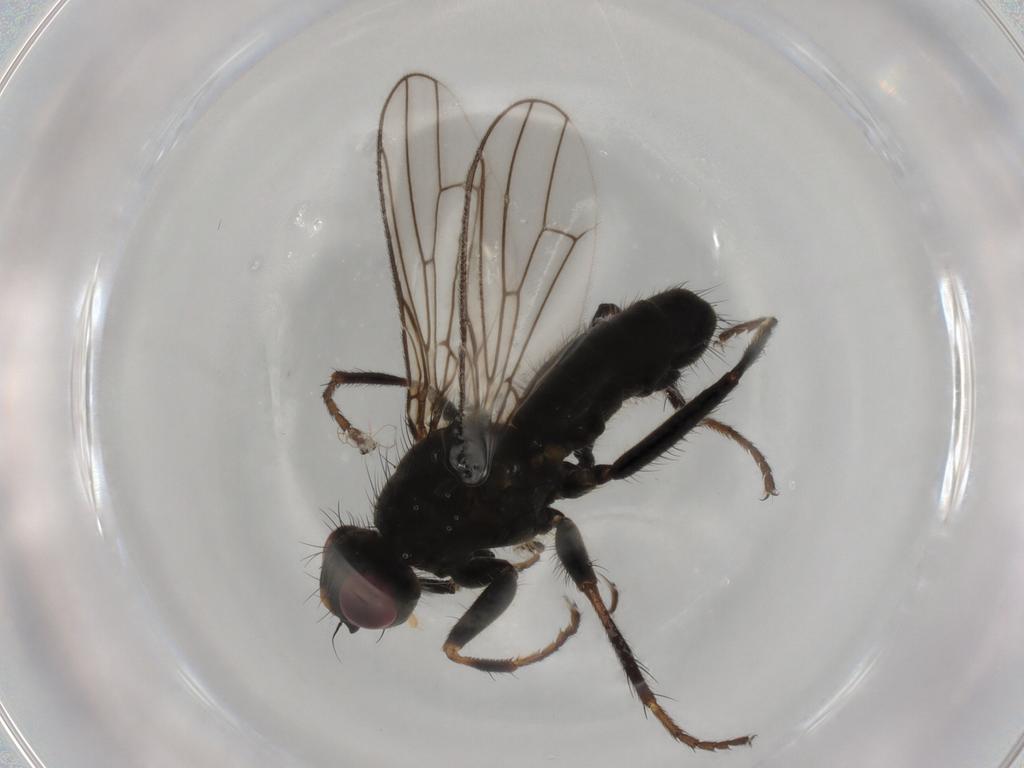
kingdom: Animalia
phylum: Arthropoda
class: Insecta
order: Diptera
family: Scathophagidae
